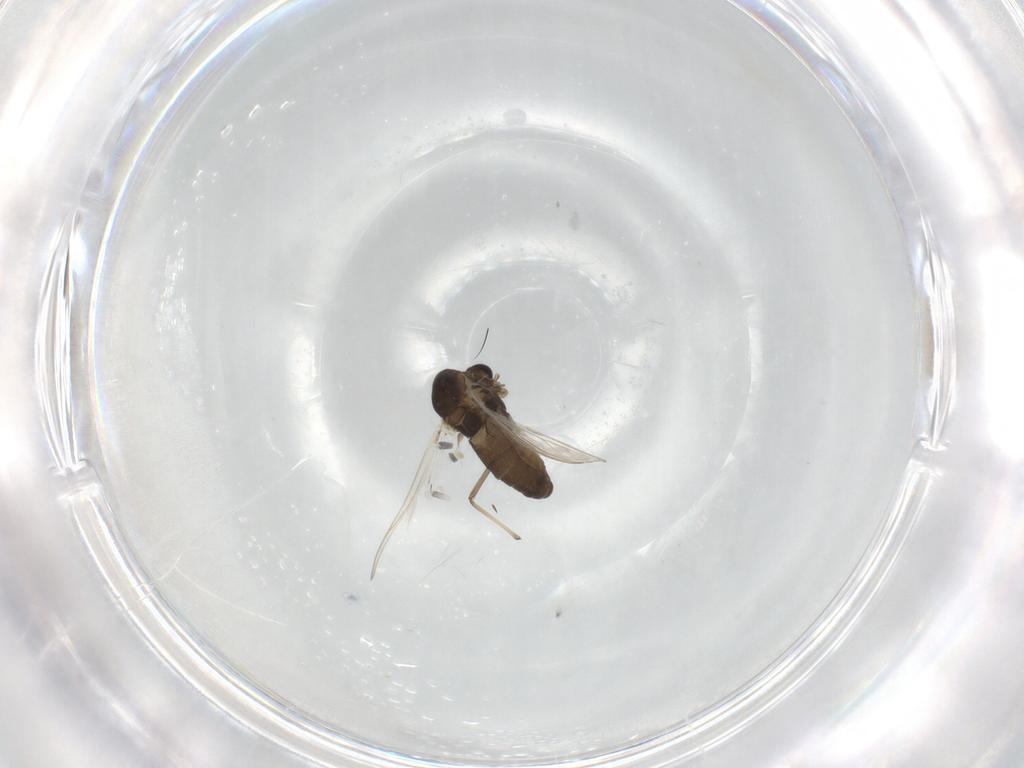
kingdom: Animalia
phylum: Arthropoda
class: Insecta
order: Diptera
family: Chironomidae
